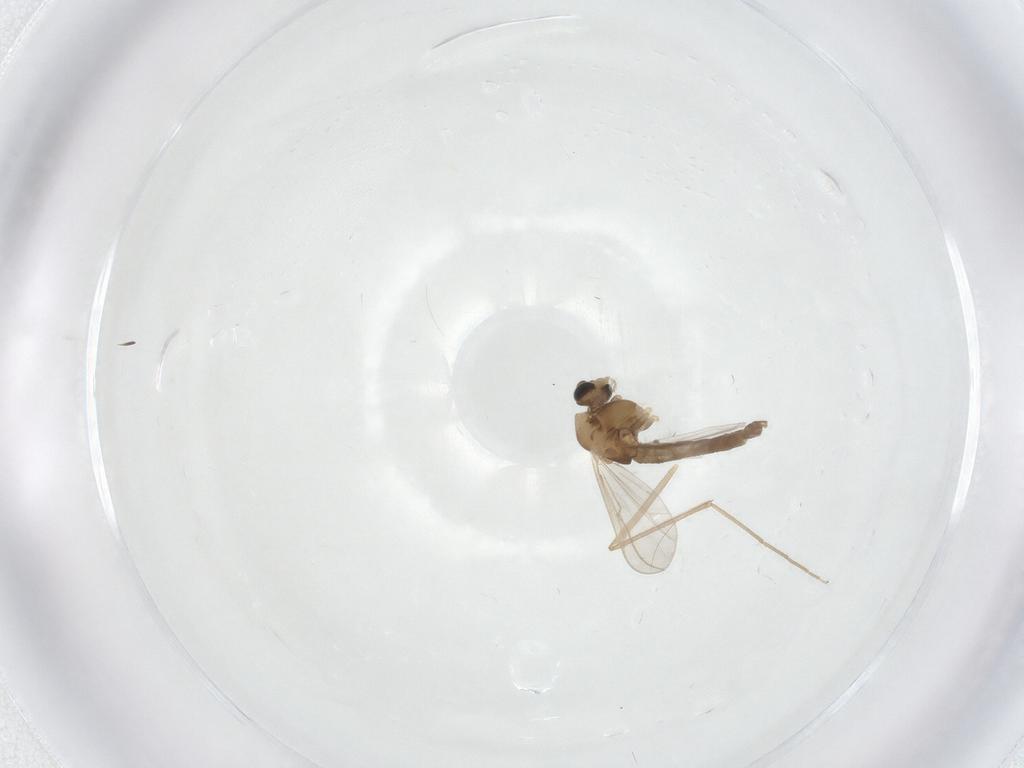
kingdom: Animalia
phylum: Arthropoda
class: Insecta
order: Diptera
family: Chironomidae
